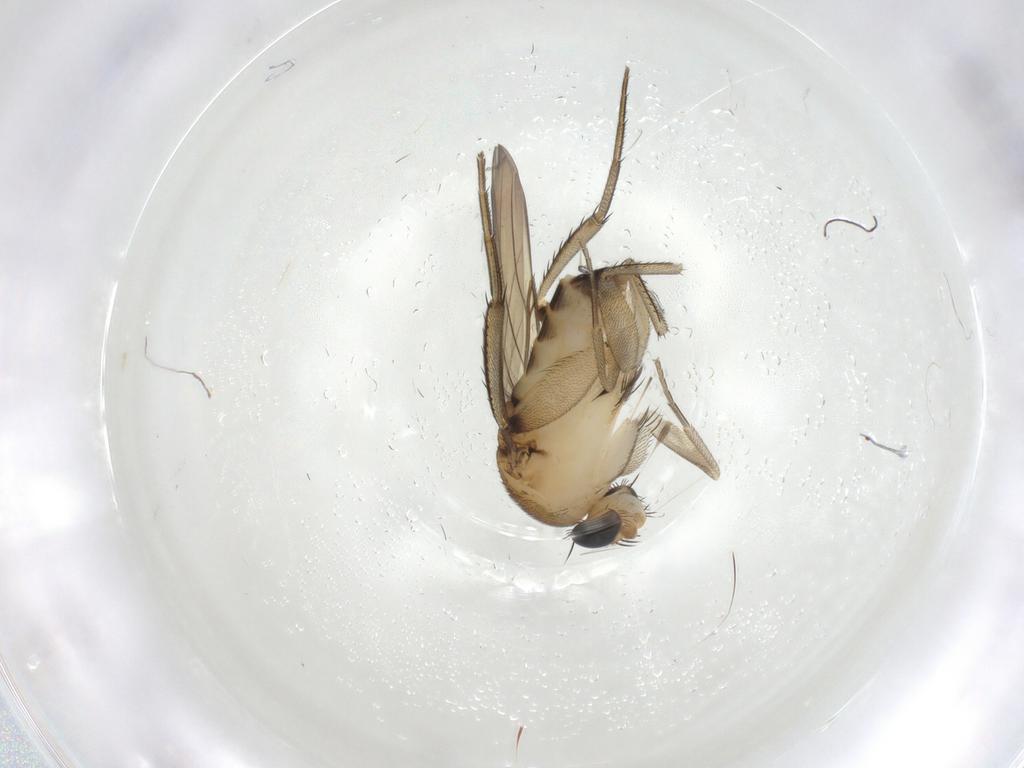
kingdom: Animalia
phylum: Arthropoda
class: Insecta
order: Diptera
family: Phoridae
